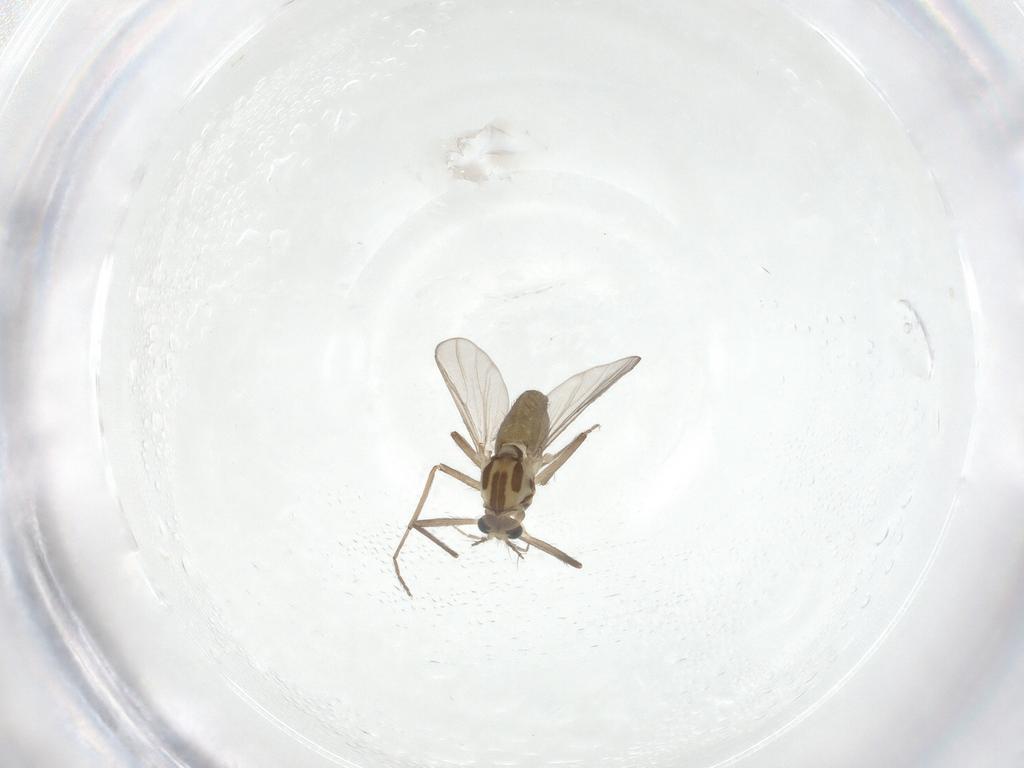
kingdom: Animalia
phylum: Arthropoda
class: Insecta
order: Diptera
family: Chironomidae
